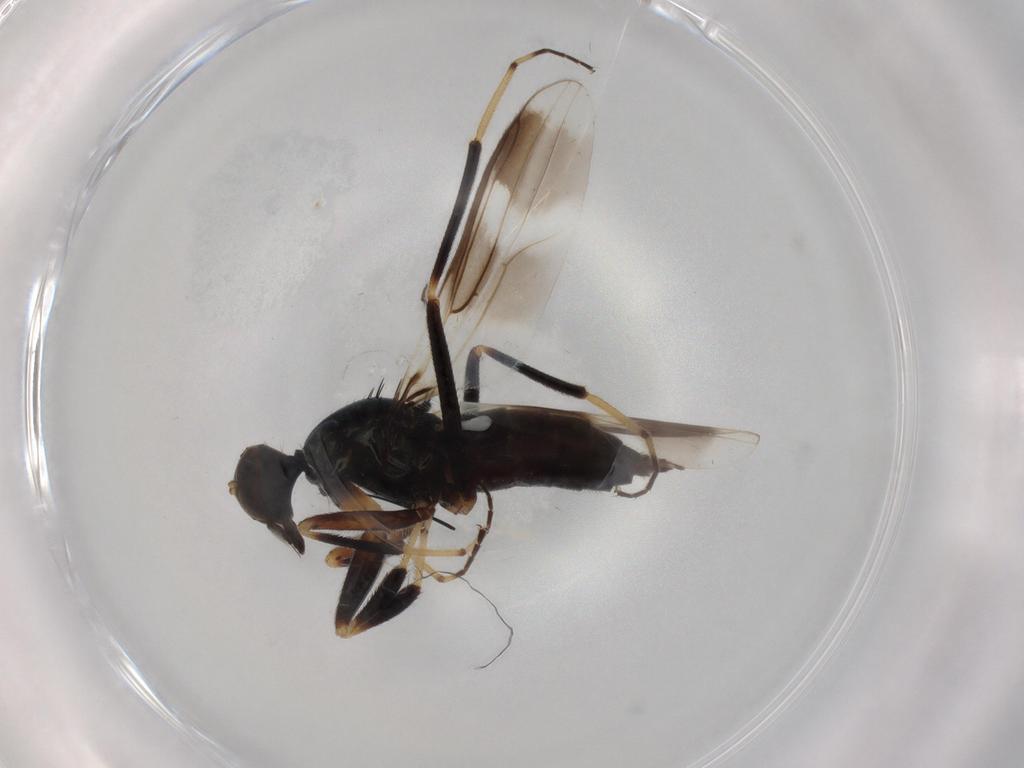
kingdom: Animalia
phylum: Arthropoda
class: Insecta
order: Diptera
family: Hybotidae
